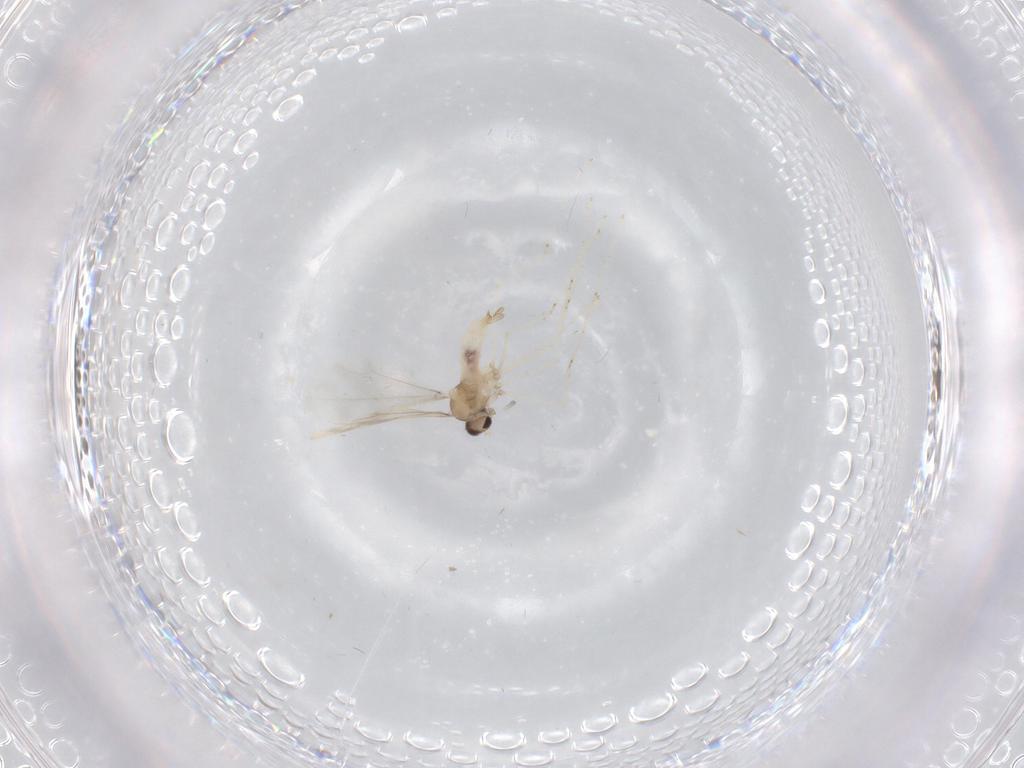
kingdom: Animalia
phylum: Arthropoda
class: Insecta
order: Diptera
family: Cecidomyiidae
